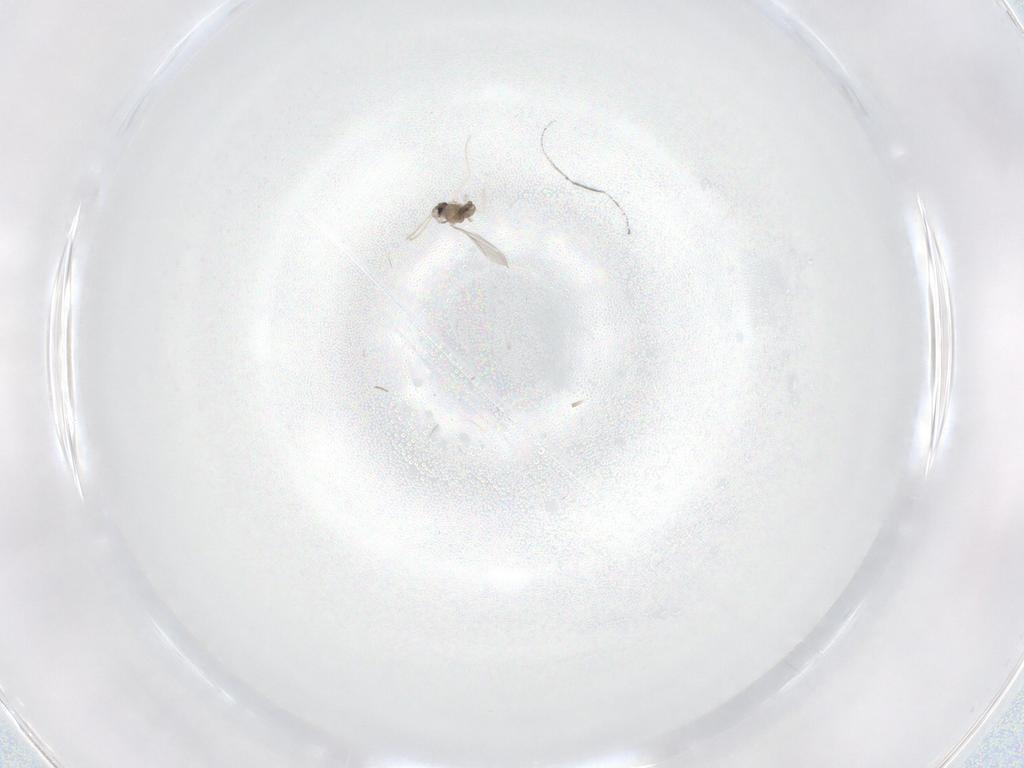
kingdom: Animalia
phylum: Arthropoda
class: Insecta
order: Diptera
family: Cecidomyiidae
